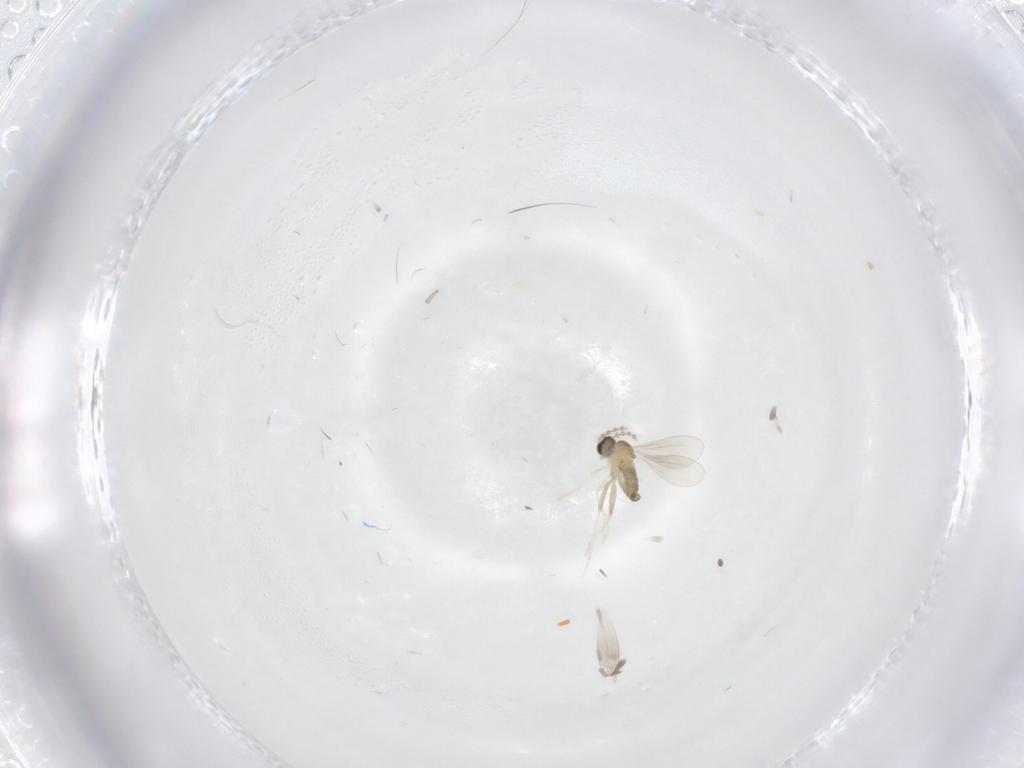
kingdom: Animalia
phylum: Arthropoda
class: Insecta
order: Diptera
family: Cecidomyiidae
